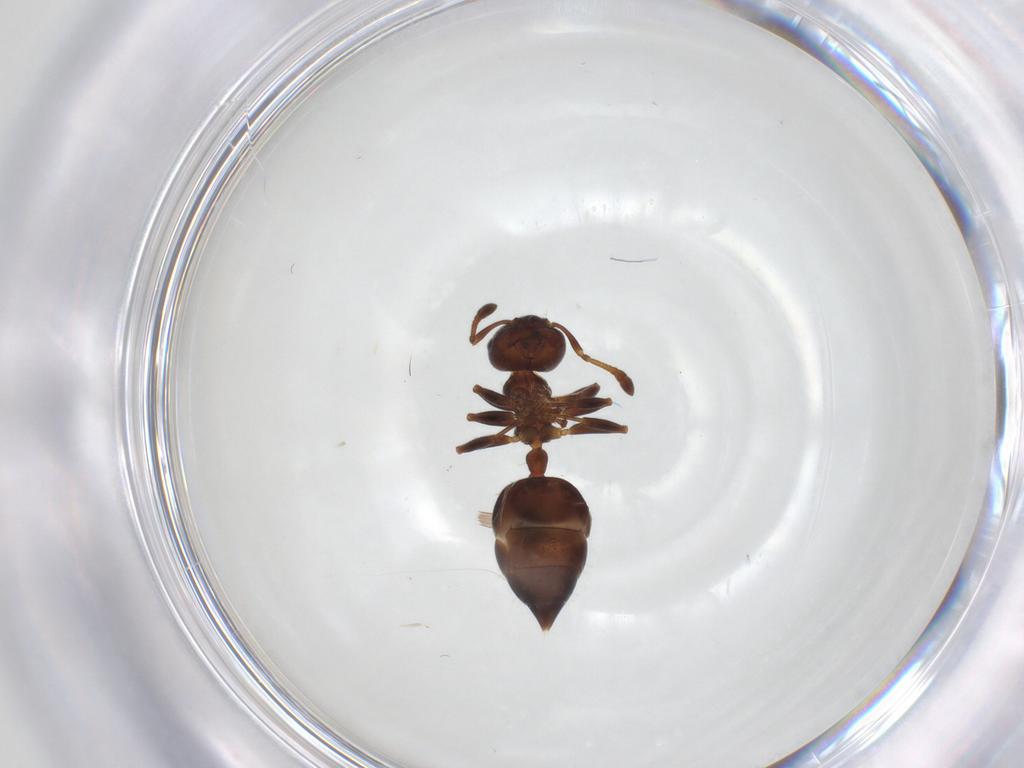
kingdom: Animalia
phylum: Arthropoda
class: Insecta
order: Hymenoptera
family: Formicidae
